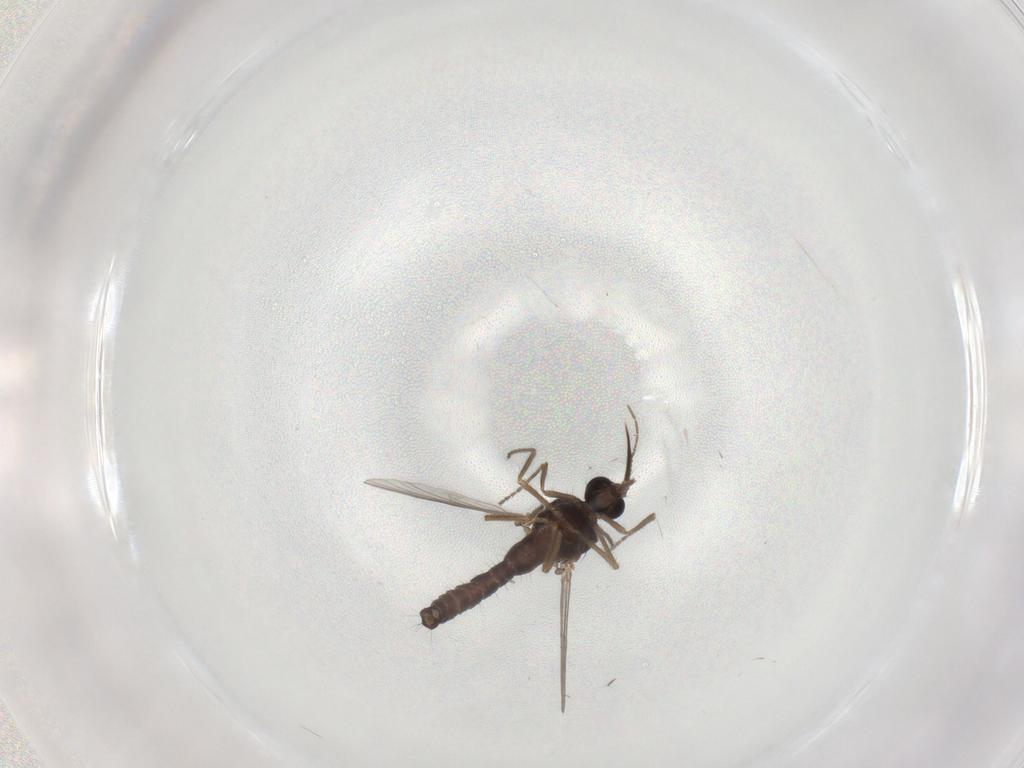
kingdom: Animalia
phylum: Arthropoda
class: Insecta
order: Diptera
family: Ceratopogonidae
